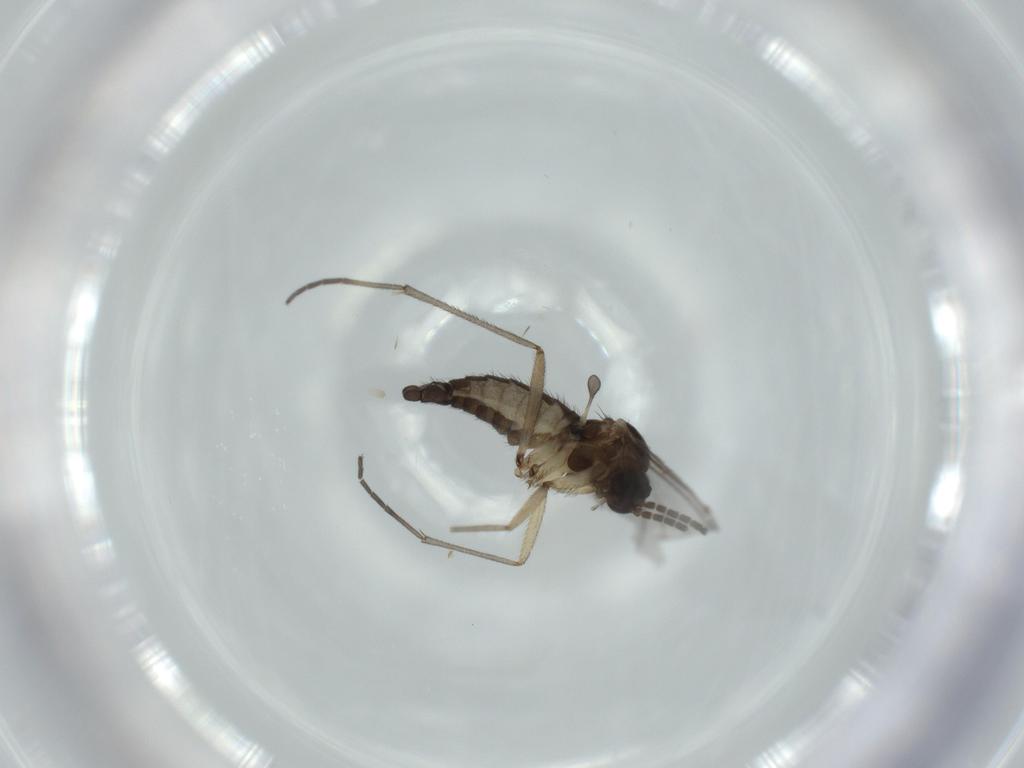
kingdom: Animalia
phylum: Arthropoda
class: Insecta
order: Diptera
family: Sciaridae
